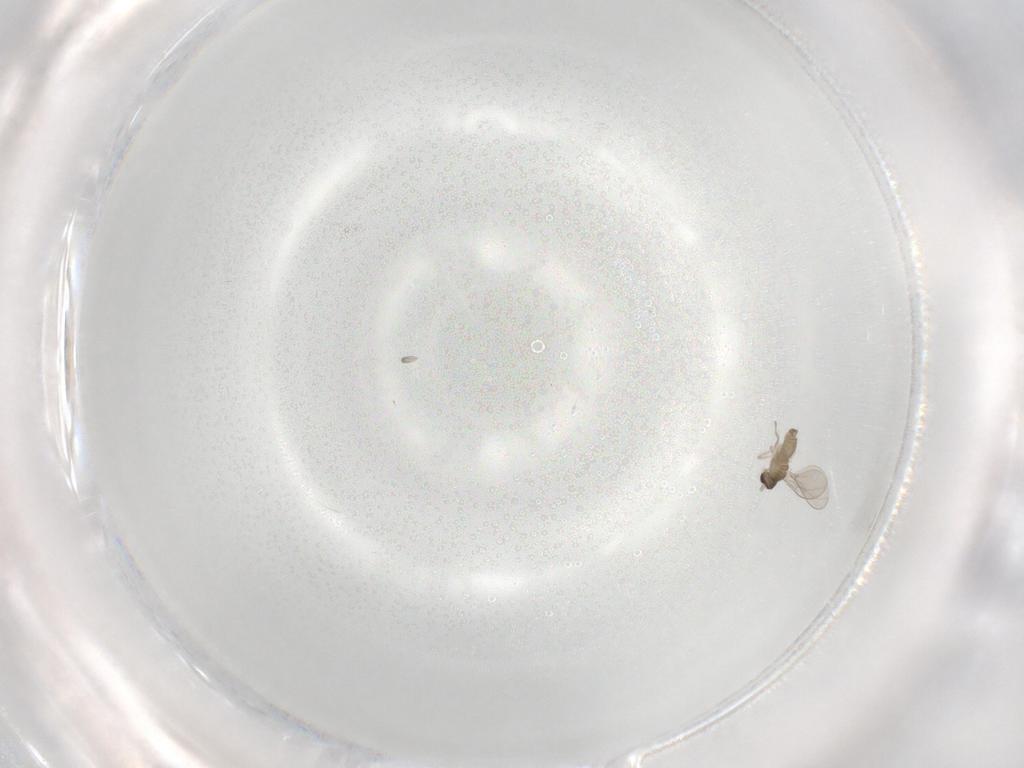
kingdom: Animalia
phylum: Arthropoda
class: Insecta
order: Diptera
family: Cecidomyiidae
